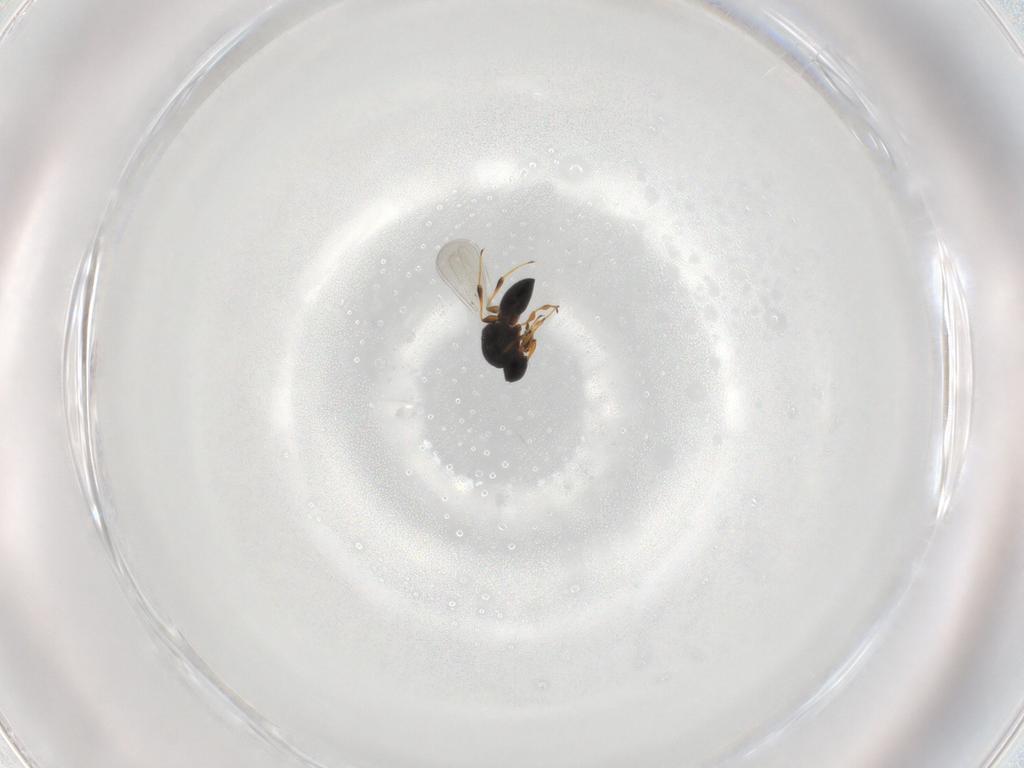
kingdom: Animalia
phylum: Arthropoda
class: Insecta
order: Hymenoptera
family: Platygastridae
